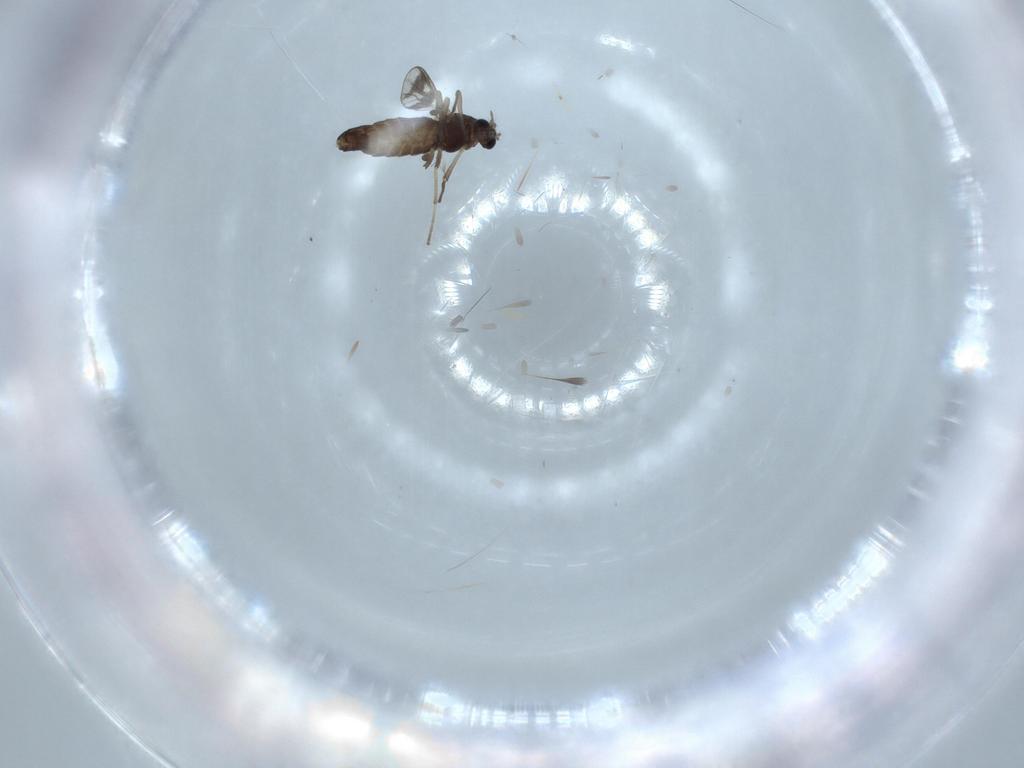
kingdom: Animalia
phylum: Arthropoda
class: Insecta
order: Diptera
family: Chironomidae
